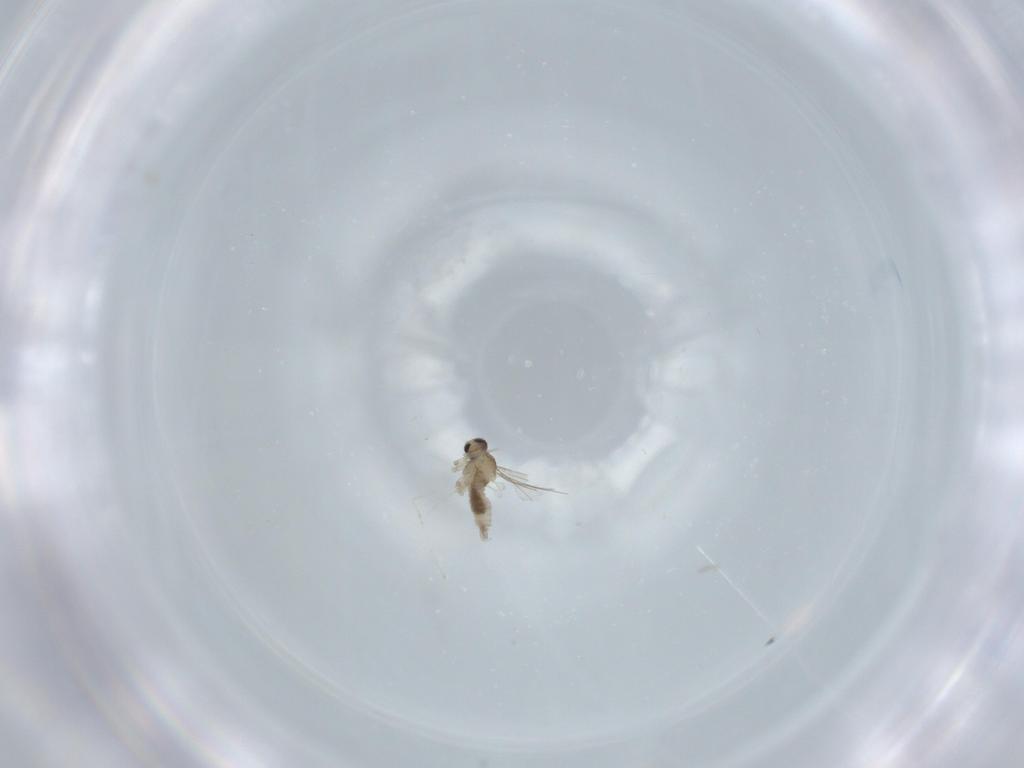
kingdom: Animalia
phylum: Arthropoda
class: Insecta
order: Diptera
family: Cecidomyiidae
